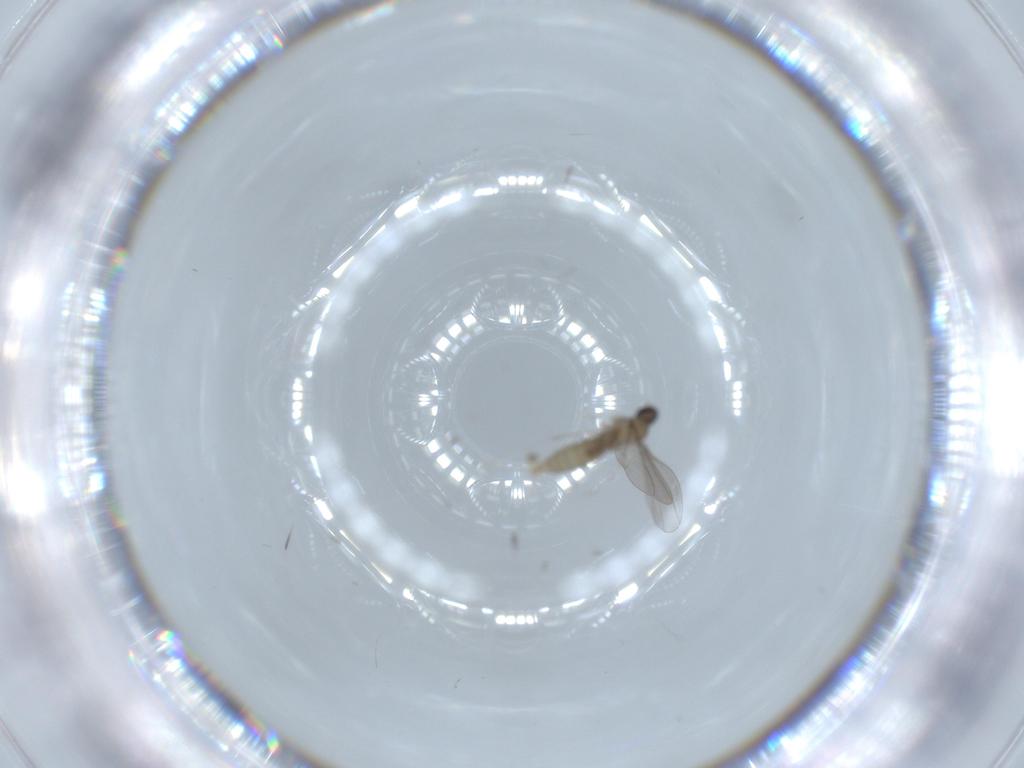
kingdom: Animalia
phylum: Arthropoda
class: Insecta
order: Diptera
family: Cecidomyiidae
